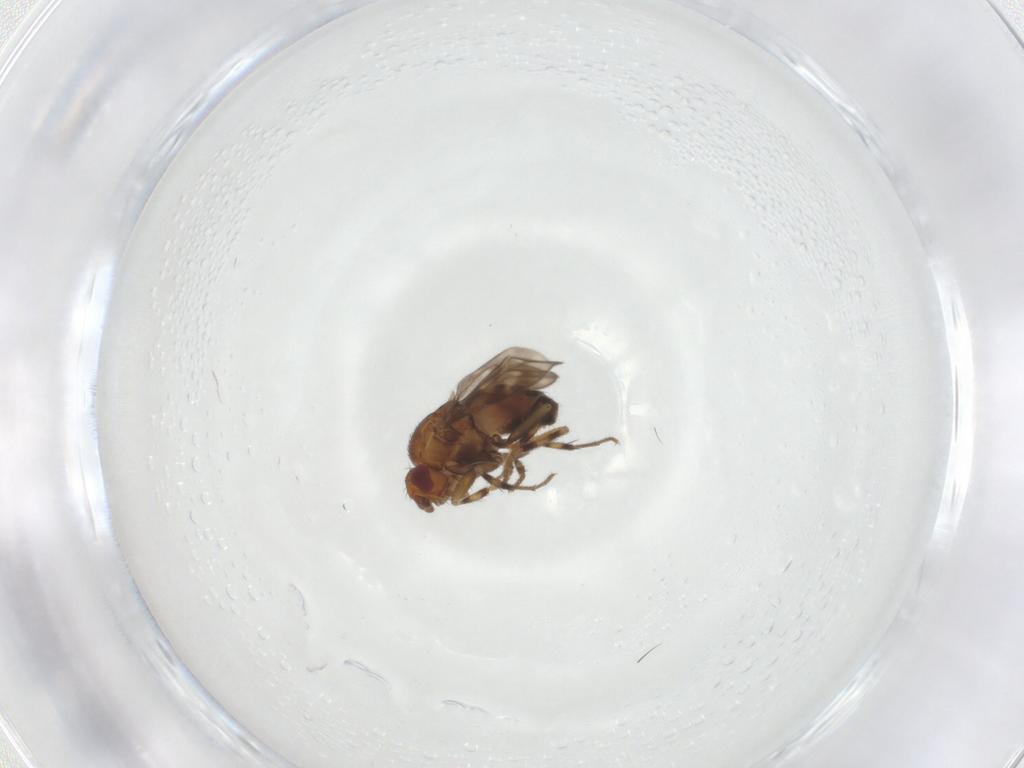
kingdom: Animalia
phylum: Arthropoda
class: Insecta
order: Diptera
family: Sphaeroceridae
